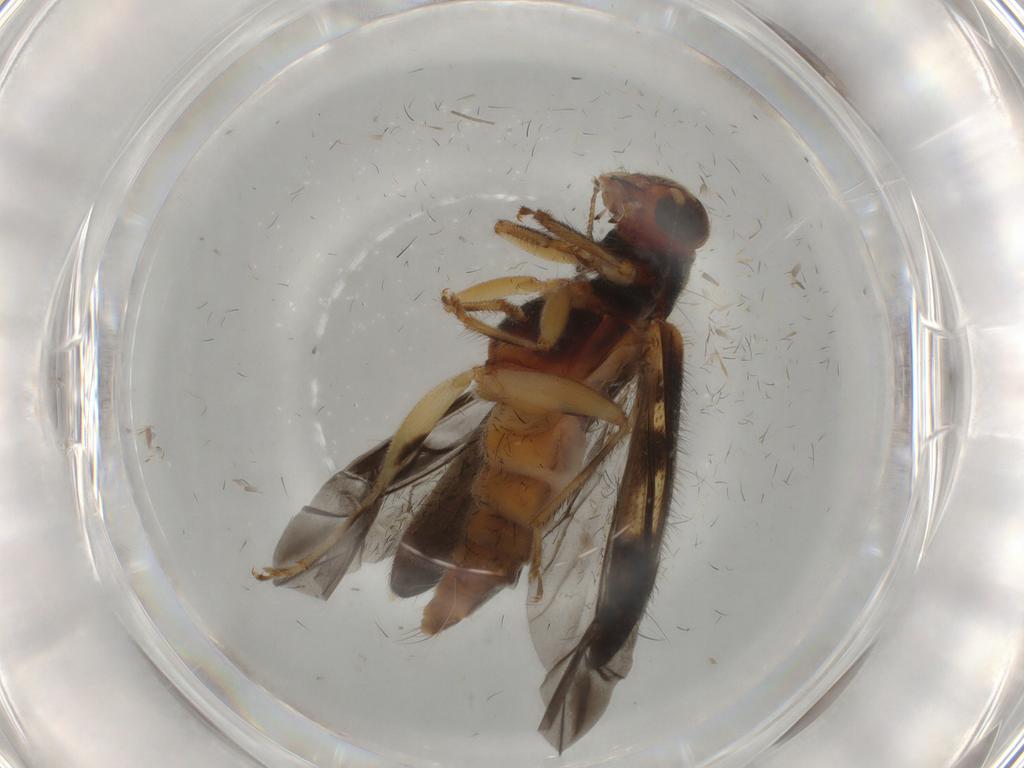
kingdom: Animalia
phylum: Arthropoda
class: Insecta
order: Coleoptera
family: Cleridae
